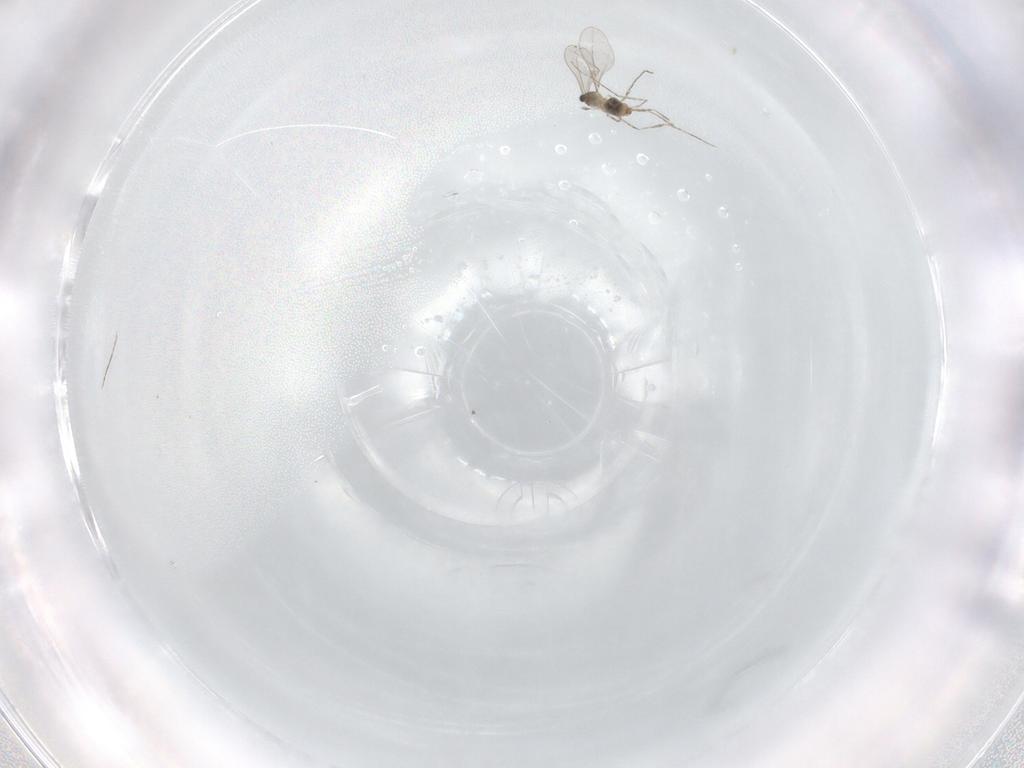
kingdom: Animalia
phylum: Arthropoda
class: Insecta
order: Diptera
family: Cecidomyiidae
